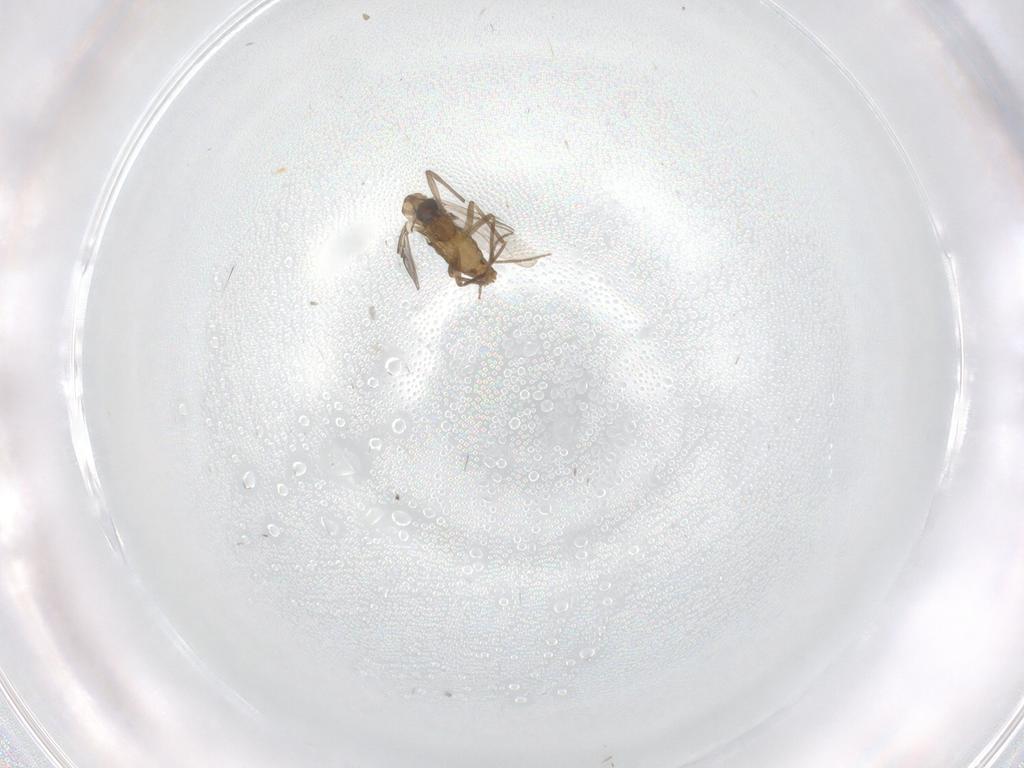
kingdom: Animalia
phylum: Arthropoda
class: Insecta
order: Diptera
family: Chironomidae
